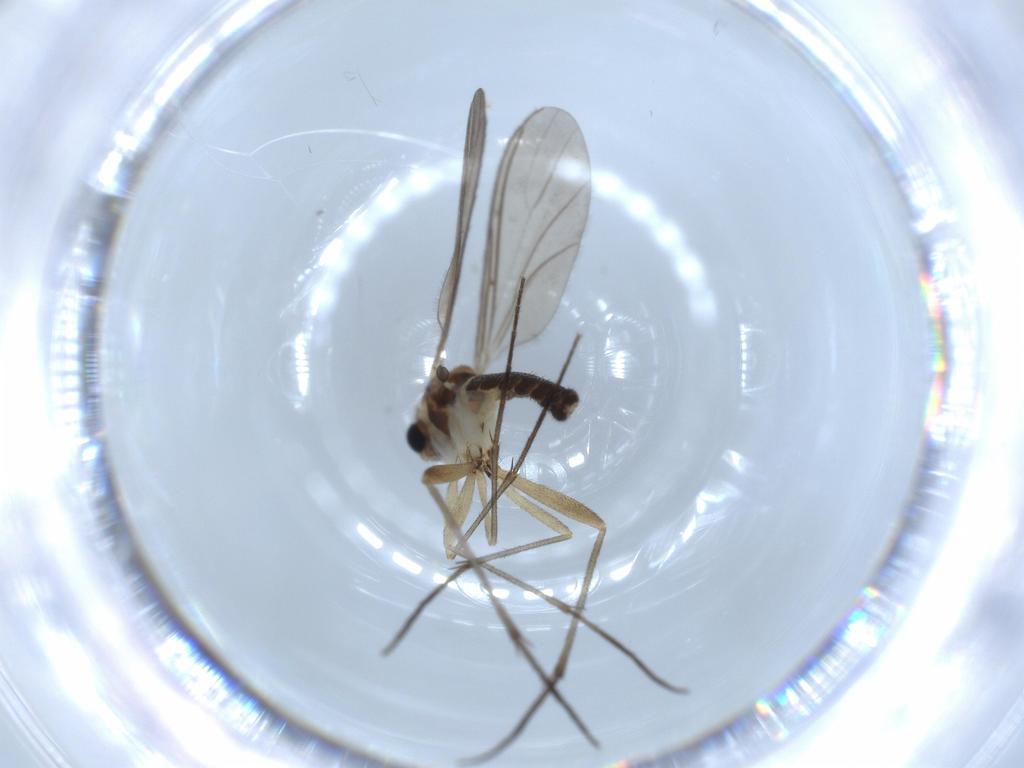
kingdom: Animalia
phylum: Arthropoda
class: Insecta
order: Diptera
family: Sciaridae
